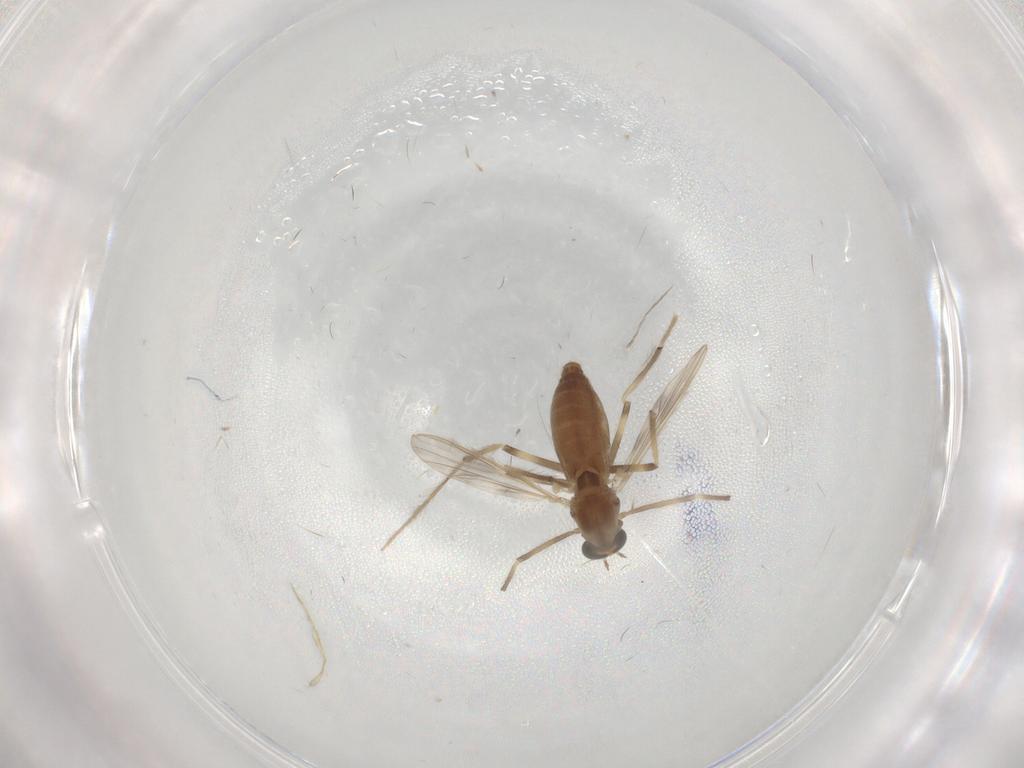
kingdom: Animalia
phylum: Arthropoda
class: Insecta
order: Diptera
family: Chironomidae
